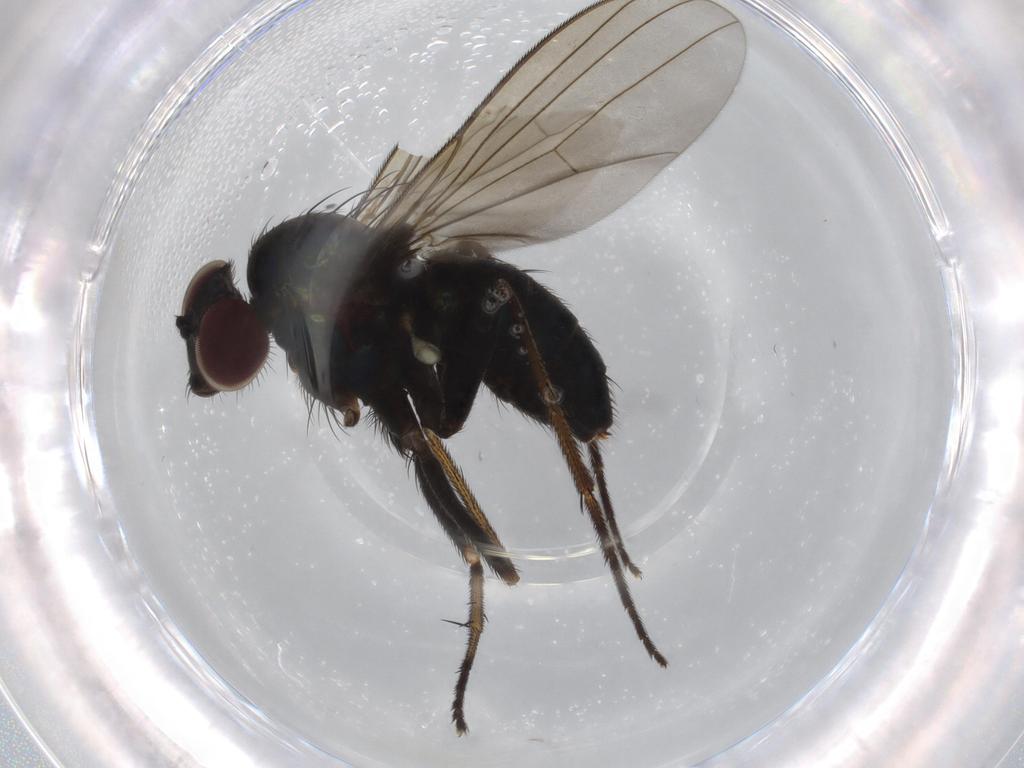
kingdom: Animalia
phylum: Arthropoda
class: Insecta
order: Diptera
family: Dolichopodidae
